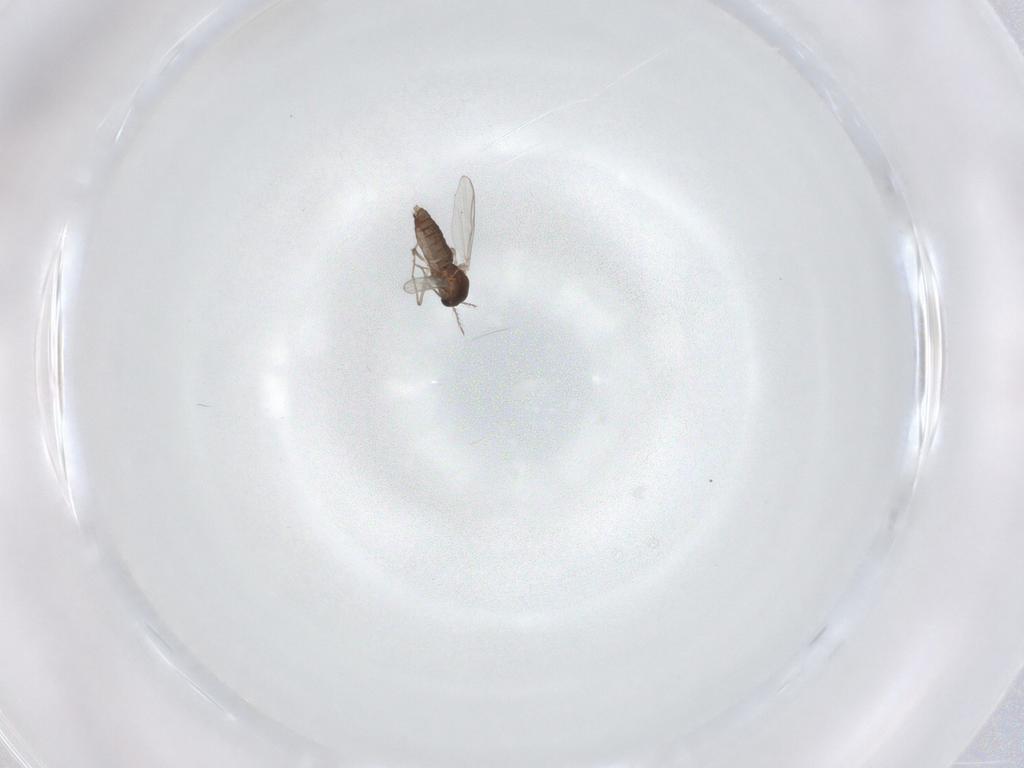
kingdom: Animalia
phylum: Arthropoda
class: Insecta
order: Diptera
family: Chironomidae
